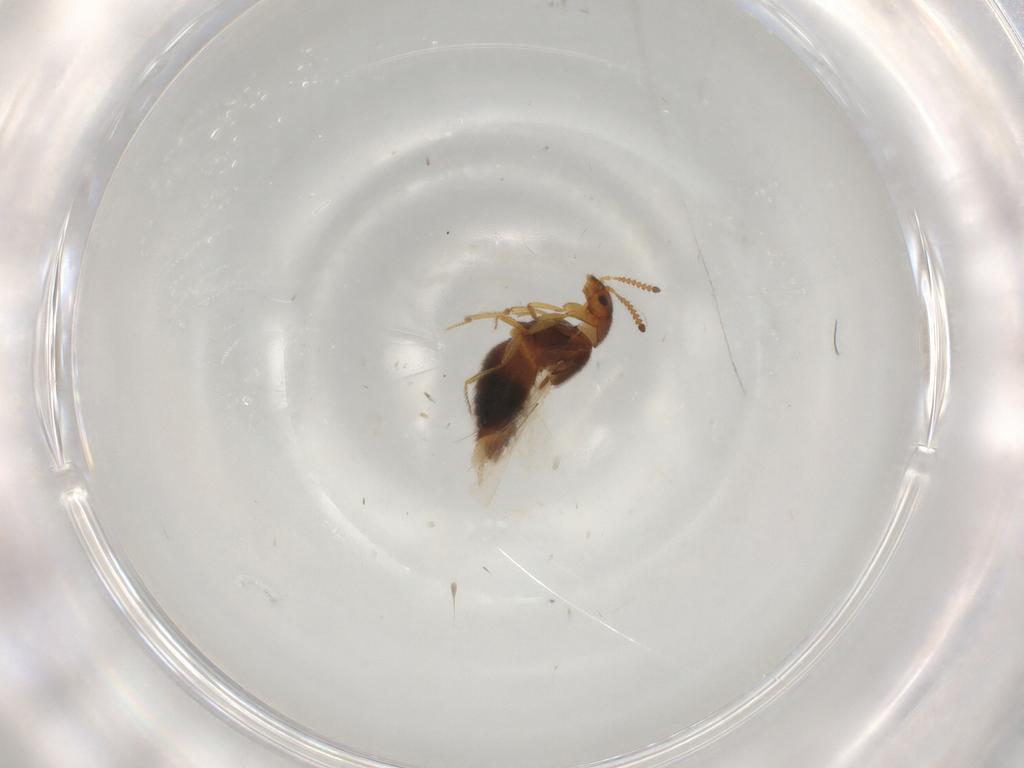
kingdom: Animalia
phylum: Arthropoda
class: Insecta
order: Coleoptera
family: Staphylinidae
